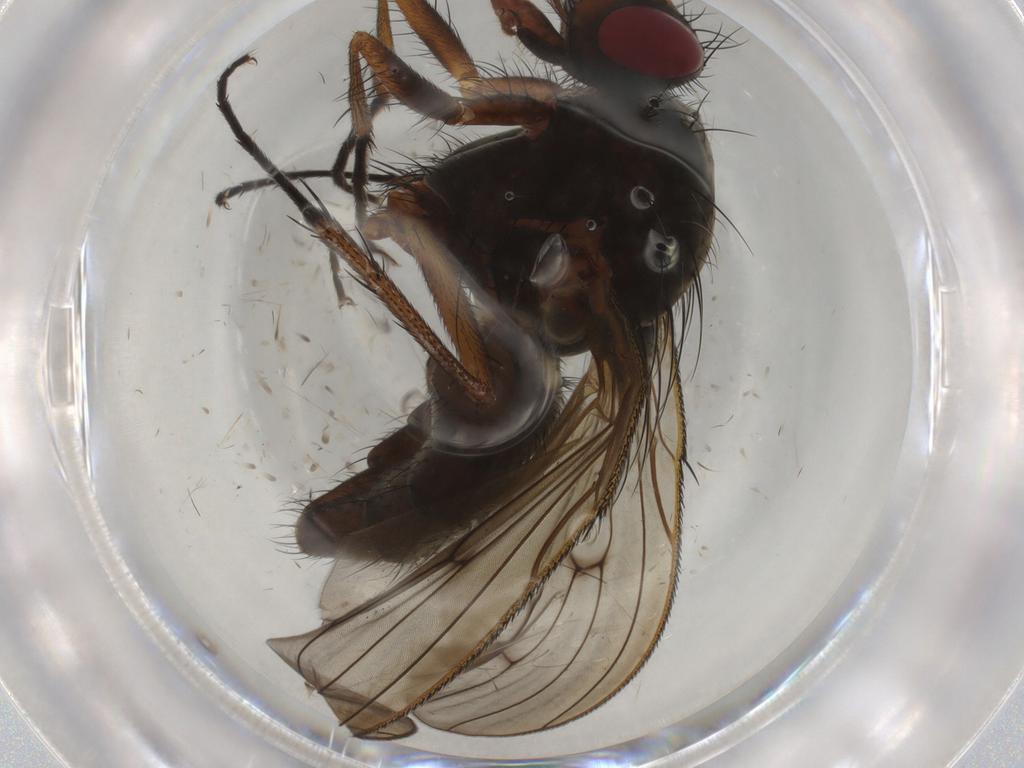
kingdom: Animalia
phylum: Arthropoda
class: Insecta
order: Diptera
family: Anthomyiidae
